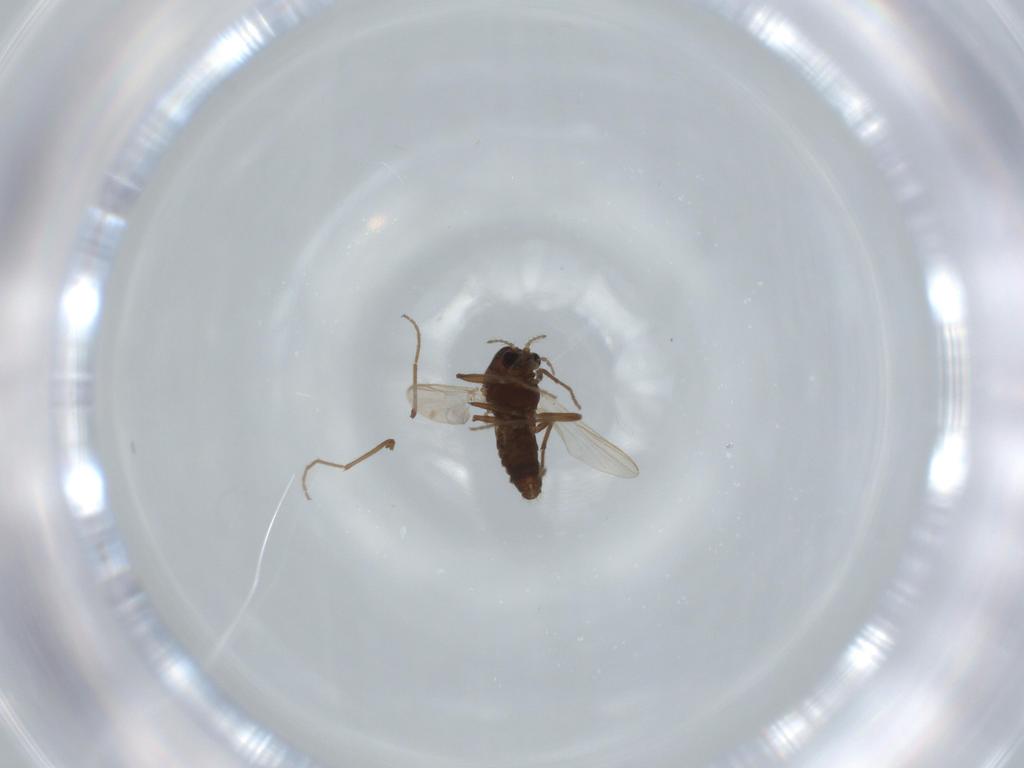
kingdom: Animalia
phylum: Arthropoda
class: Insecta
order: Diptera
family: Chironomidae
